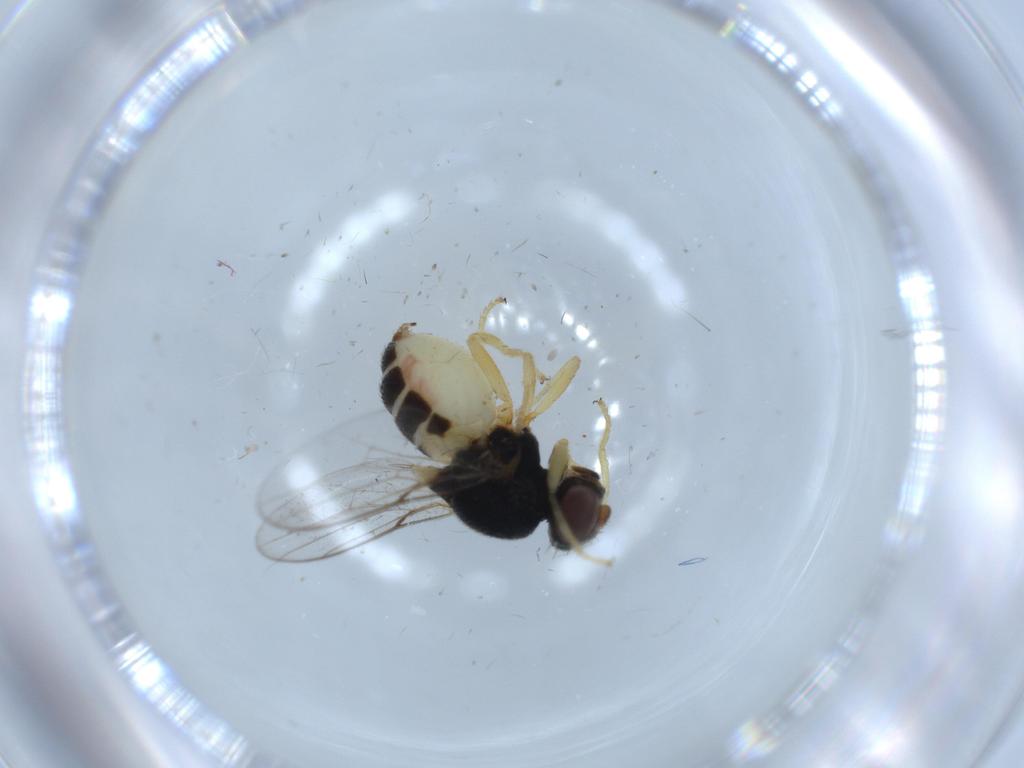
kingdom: Animalia
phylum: Arthropoda
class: Insecta
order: Diptera
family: Chloropidae
